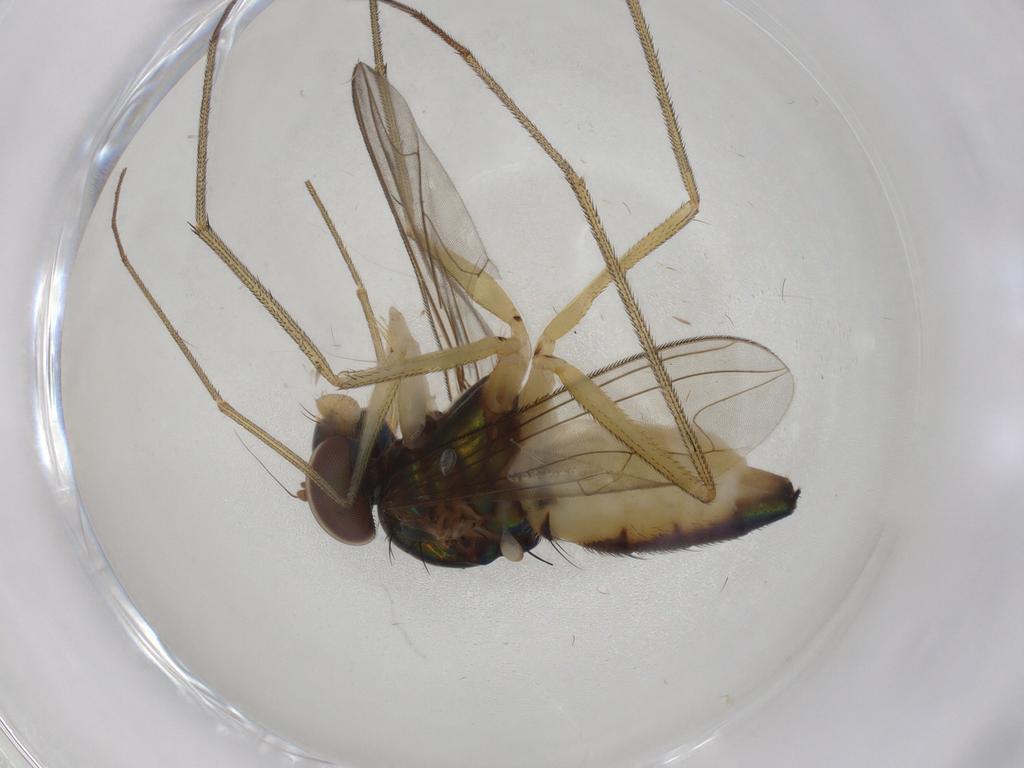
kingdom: Animalia
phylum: Arthropoda
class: Insecta
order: Diptera
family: Dolichopodidae
